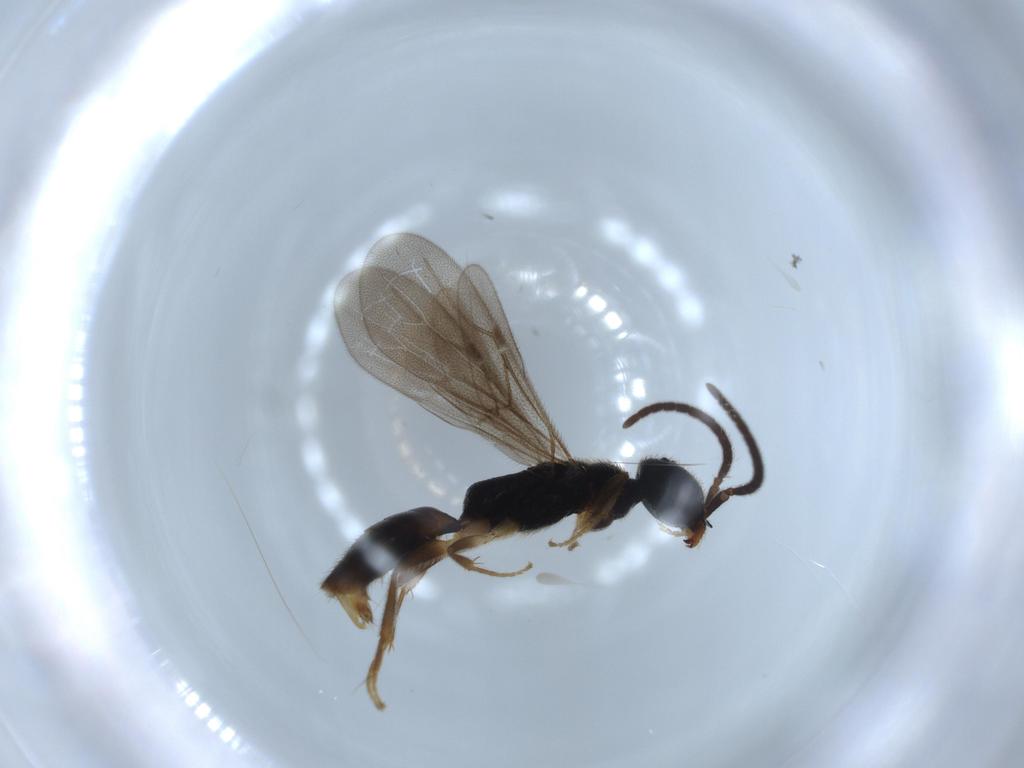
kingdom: Animalia
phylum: Arthropoda
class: Insecta
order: Hymenoptera
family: Bethylidae
